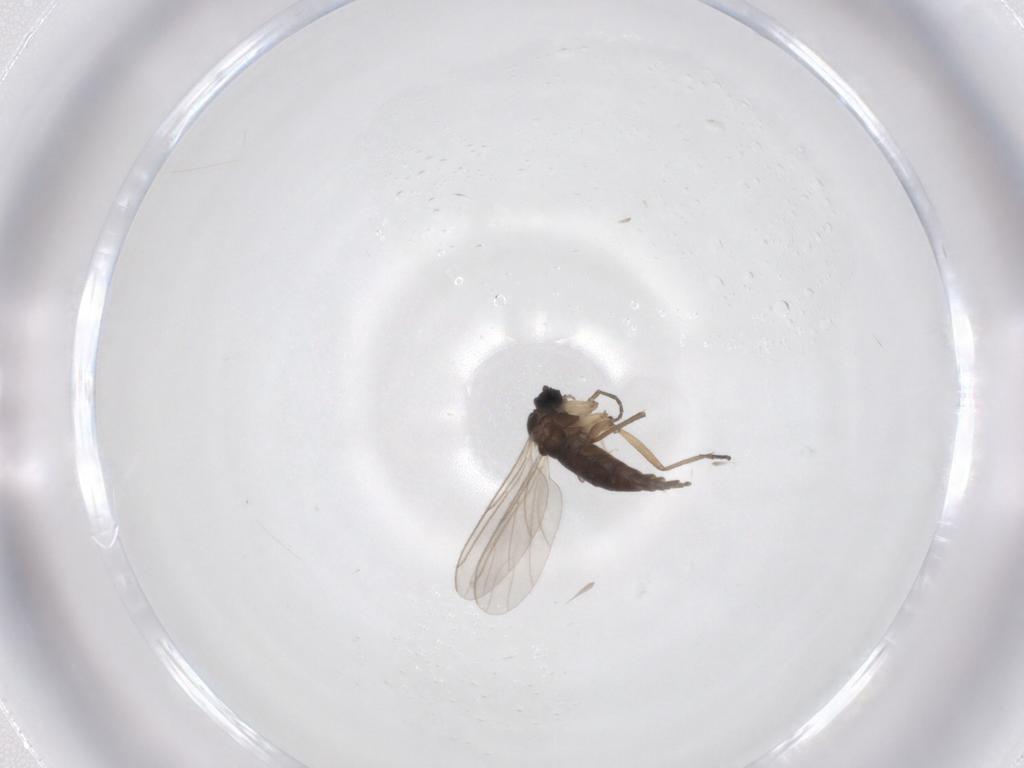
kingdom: Animalia
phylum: Arthropoda
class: Insecta
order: Diptera
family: Sciaridae
